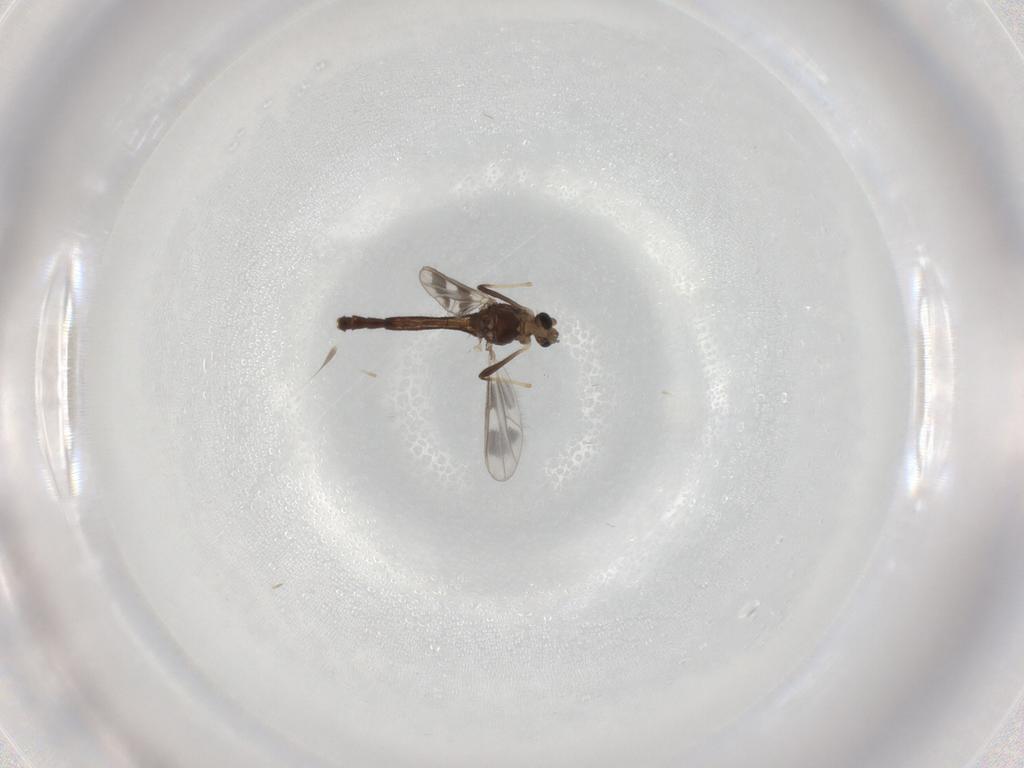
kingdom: Animalia
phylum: Arthropoda
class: Insecta
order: Diptera
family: Chironomidae
